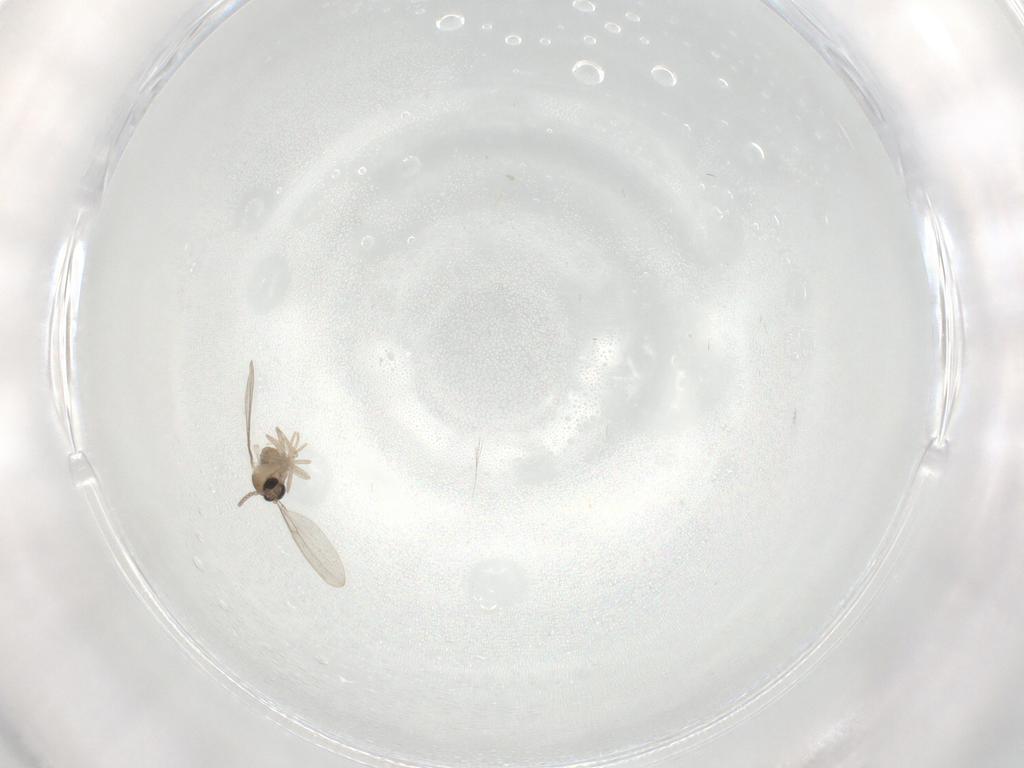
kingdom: Animalia
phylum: Arthropoda
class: Insecta
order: Diptera
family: Cecidomyiidae
